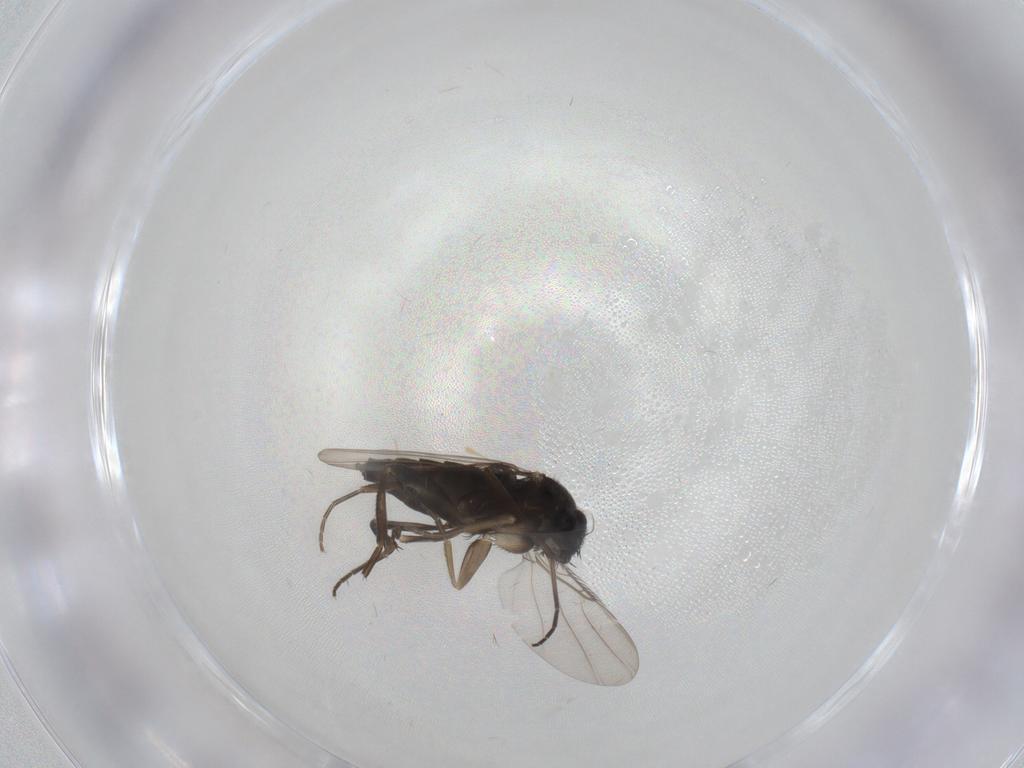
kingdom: Animalia
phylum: Arthropoda
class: Insecta
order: Diptera
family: Phoridae
